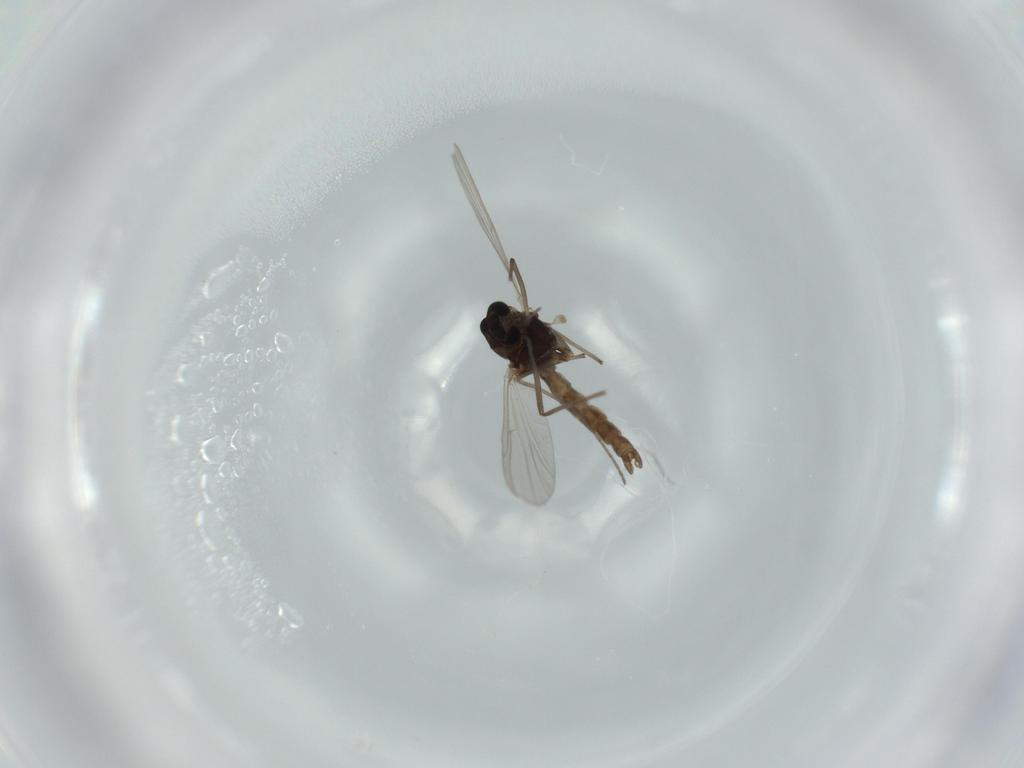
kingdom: Animalia
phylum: Arthropoda
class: Insecta
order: Diptera
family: Chironomidae
